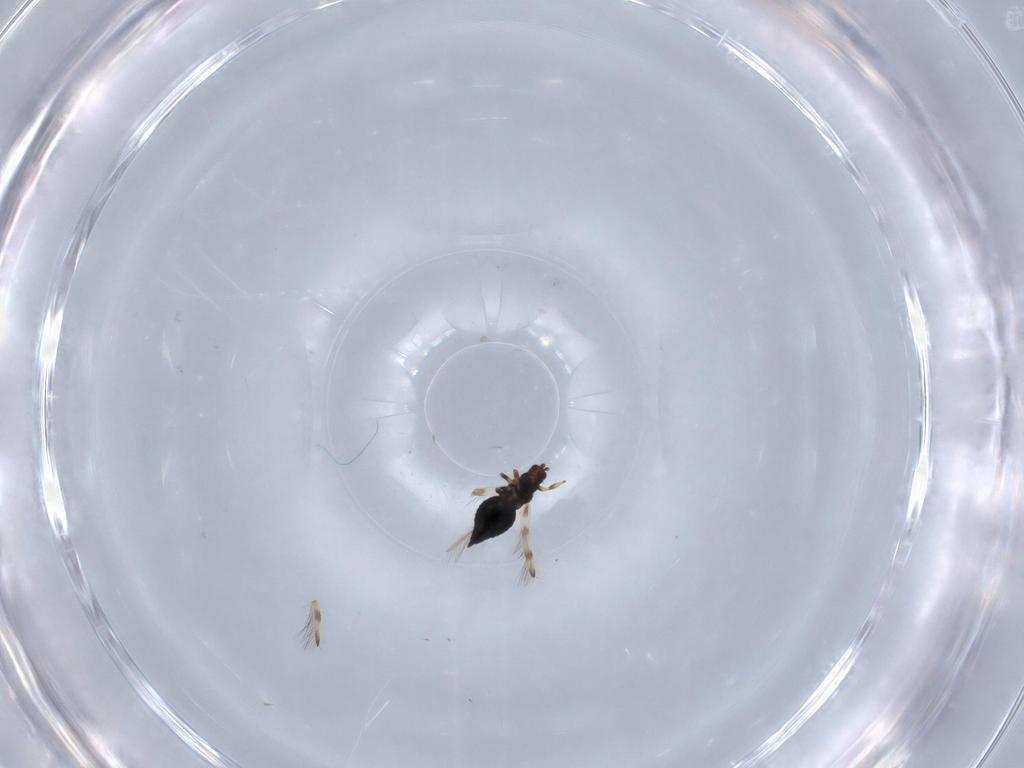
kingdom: Animalia
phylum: Arthropoda
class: Insecta
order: Thysanoptera
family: Thripidae
